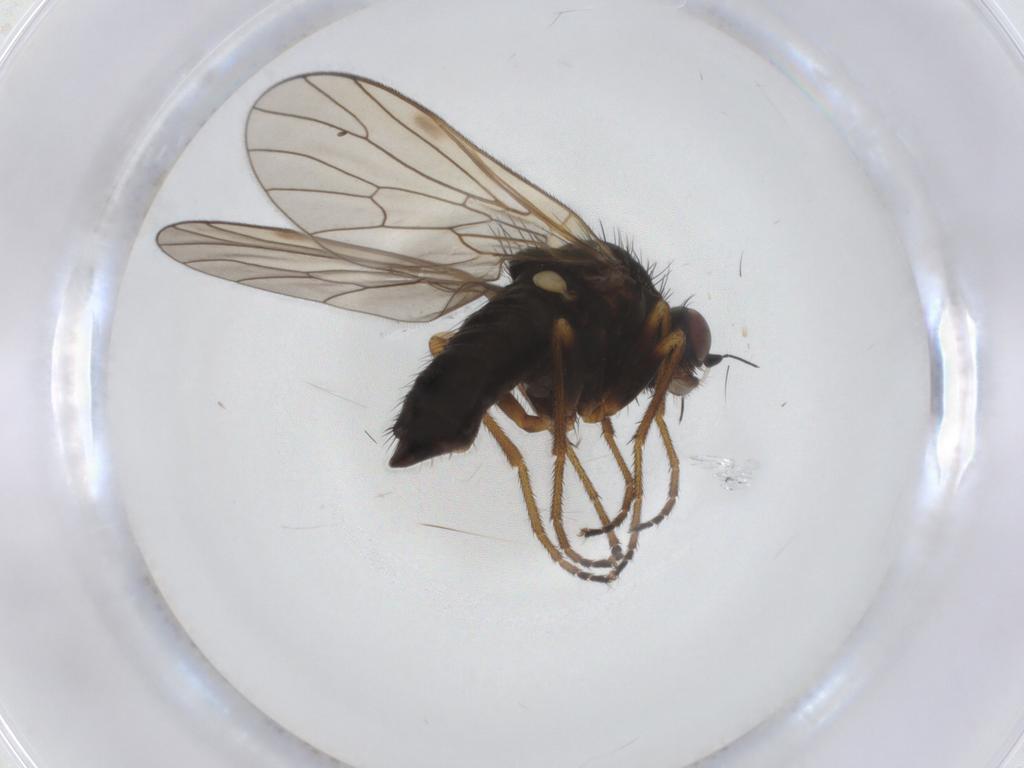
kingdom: Animalia
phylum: Arthropoda
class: Insecta
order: Diptera
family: Brachystomatidae
